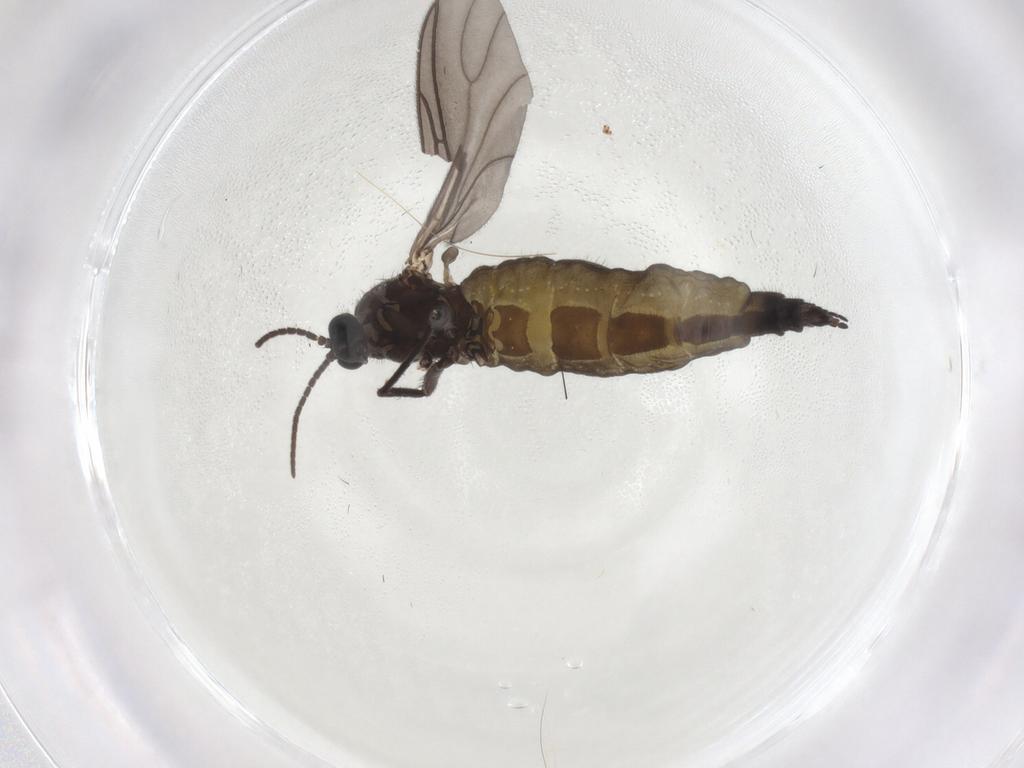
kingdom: Animalia
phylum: Arthropoda
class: Insecta
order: Diptera
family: Sciaridae
